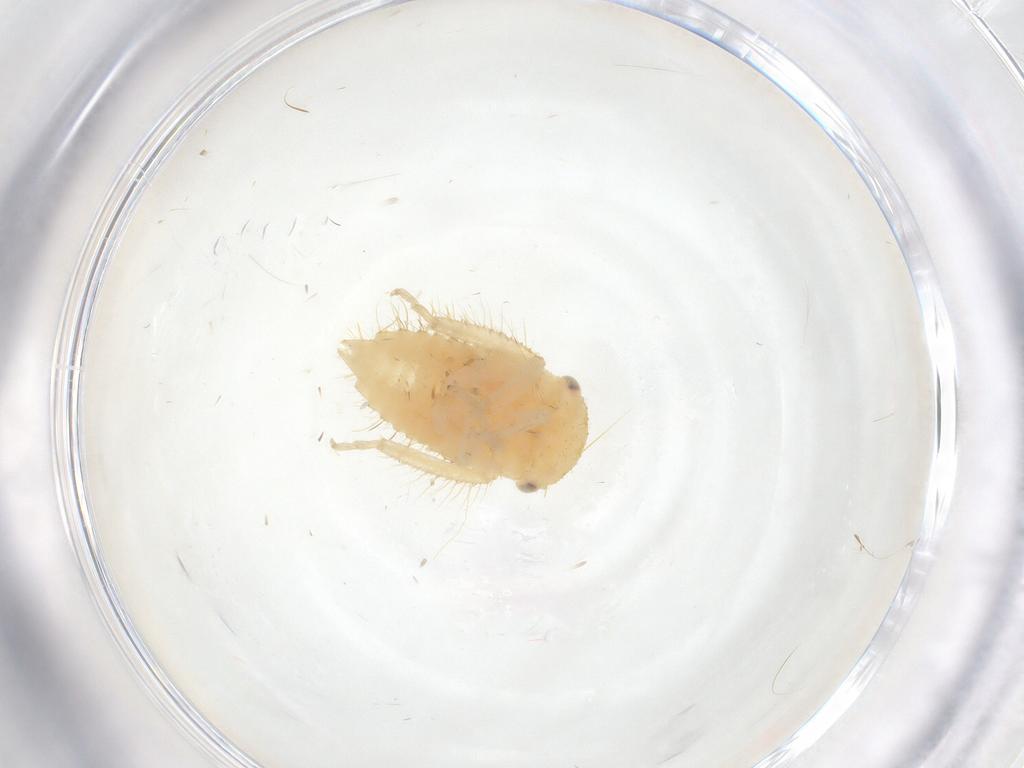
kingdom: Animalia
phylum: Arthropoda
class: Insecta
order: Hemiptera
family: Cicadellidae
